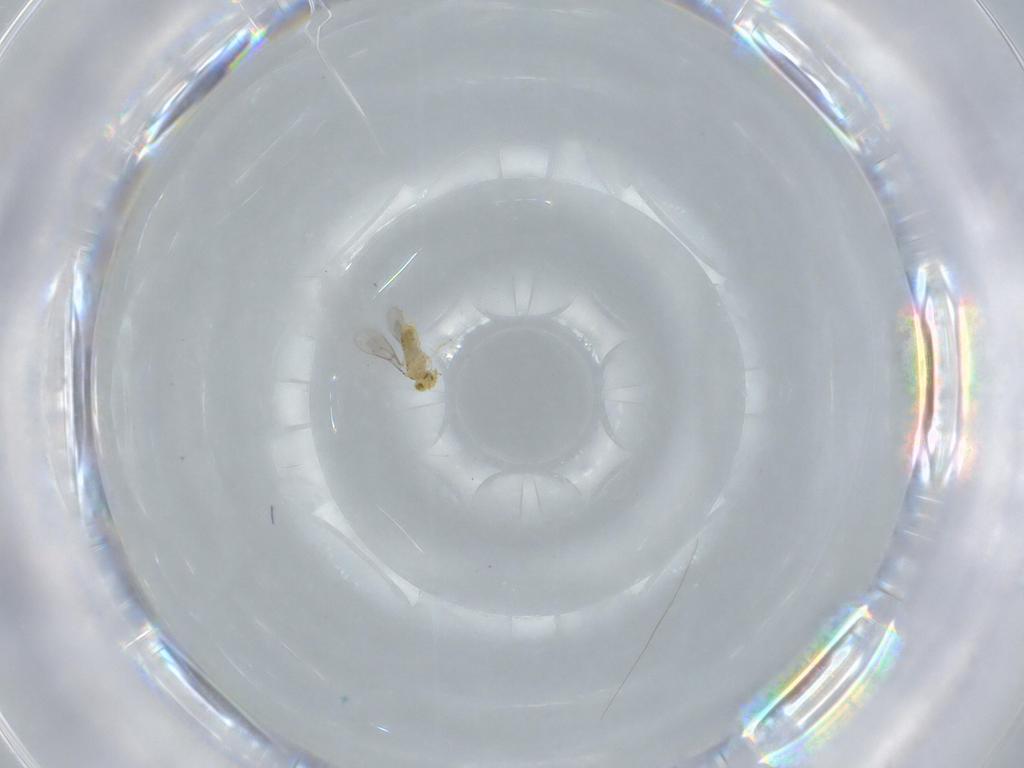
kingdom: Animalia
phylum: Arthropoda
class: Insecta
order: Hymenoptera
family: Aphelinidae
